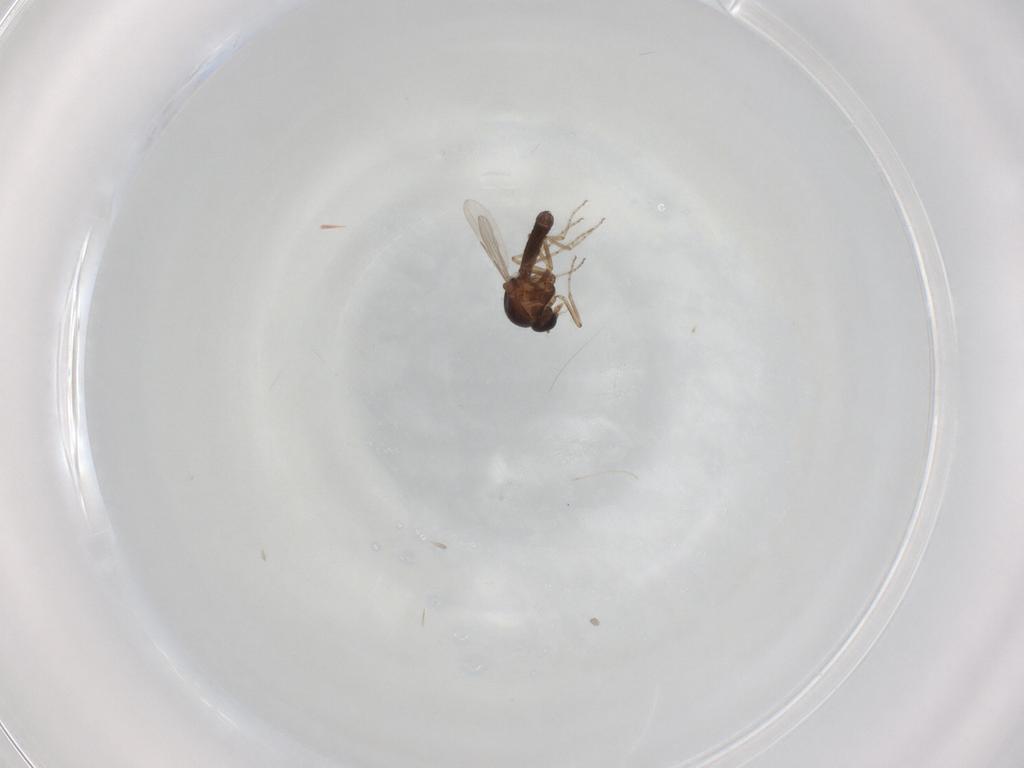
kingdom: Animalia
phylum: Arthropoda
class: Insecta
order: Diptera
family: Ceratopogonidae
